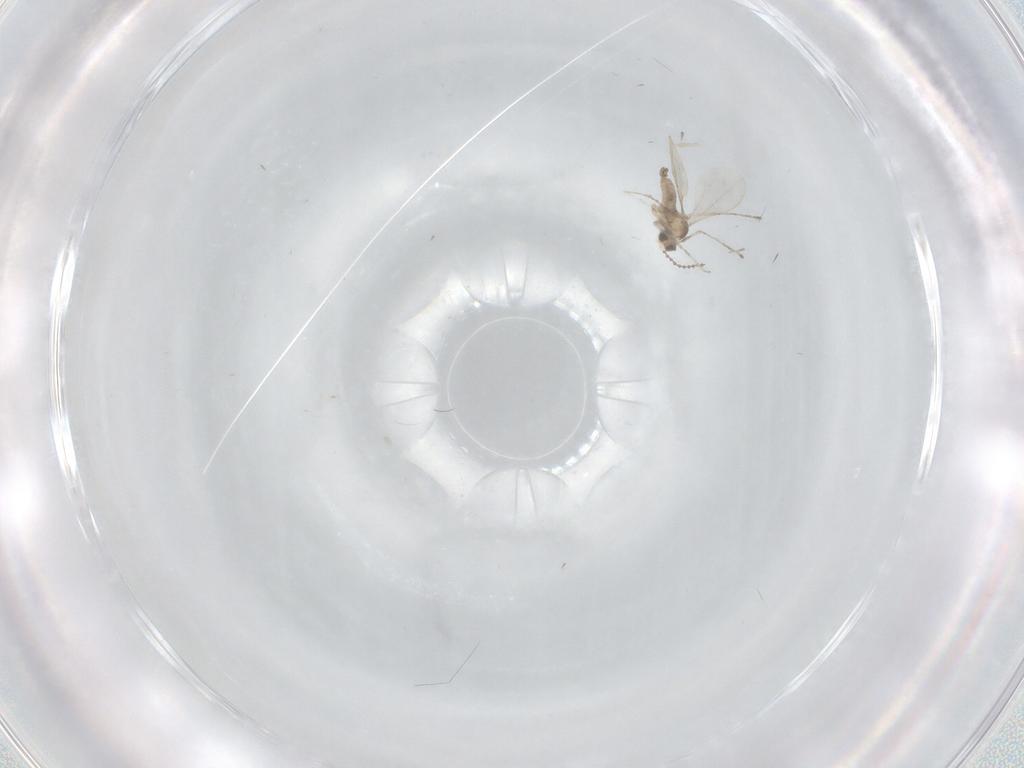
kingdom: Animalia
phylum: Arthropoda
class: Insecta
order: Diptera
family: Cecidomyiidae
